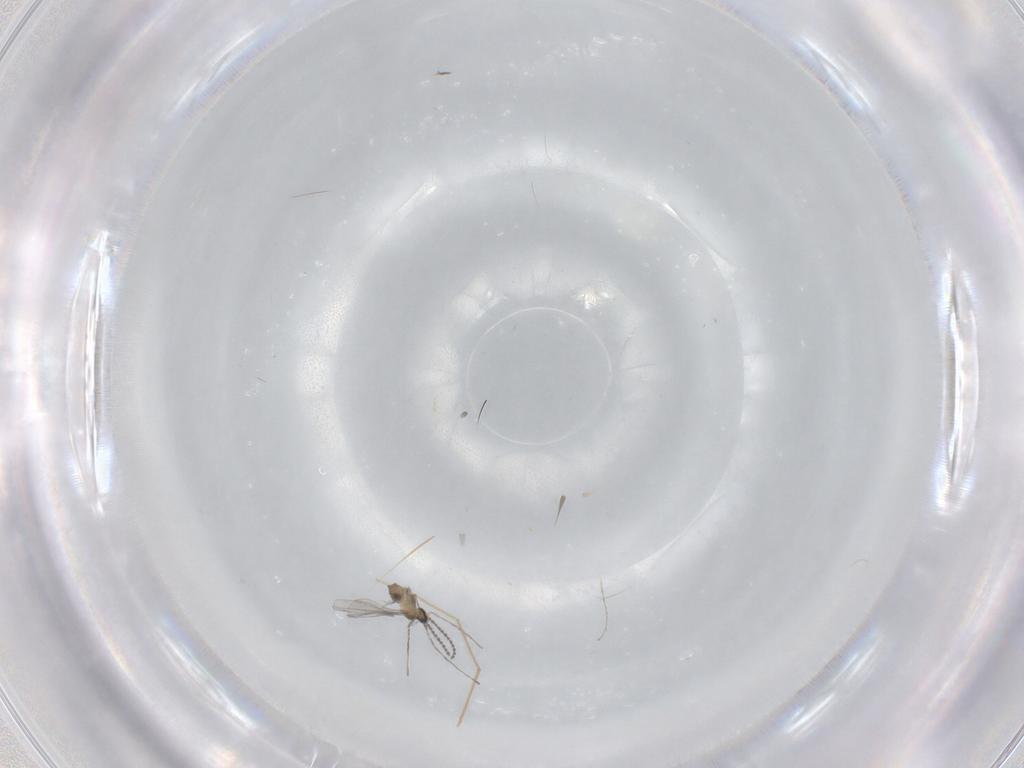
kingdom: Animalia
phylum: Arthropoda
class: Insecta
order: Diptera
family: Cecidomyiidae
